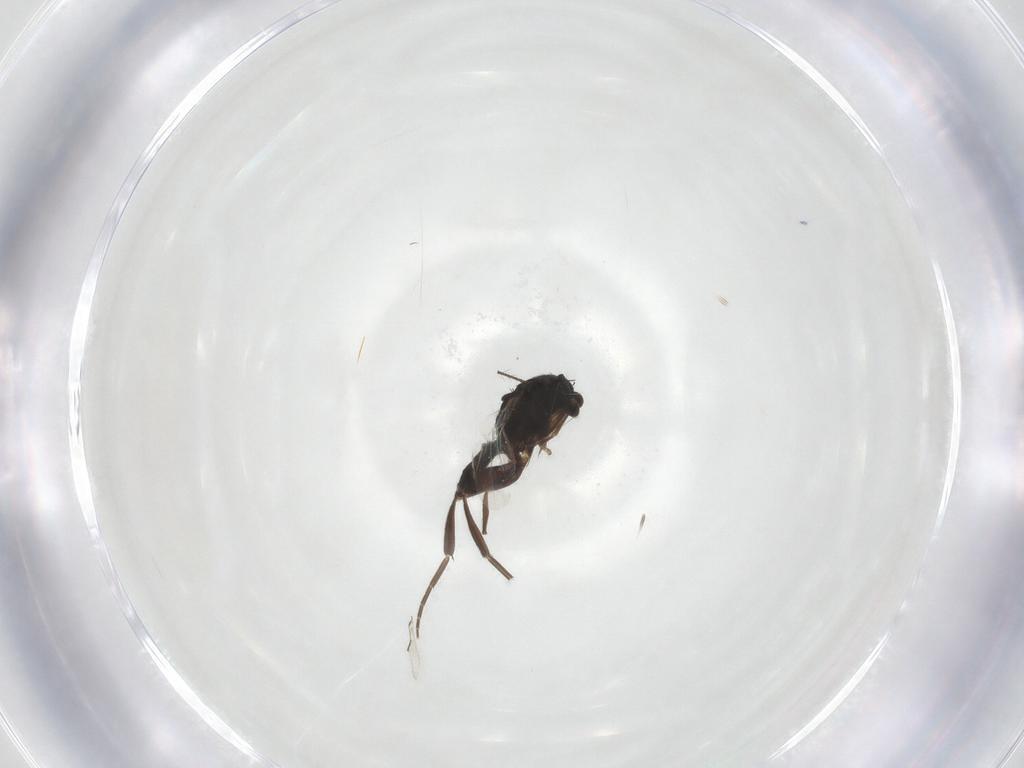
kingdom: Animalia
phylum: Arthropoda
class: Insecta
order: Diptera
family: Phoridae
